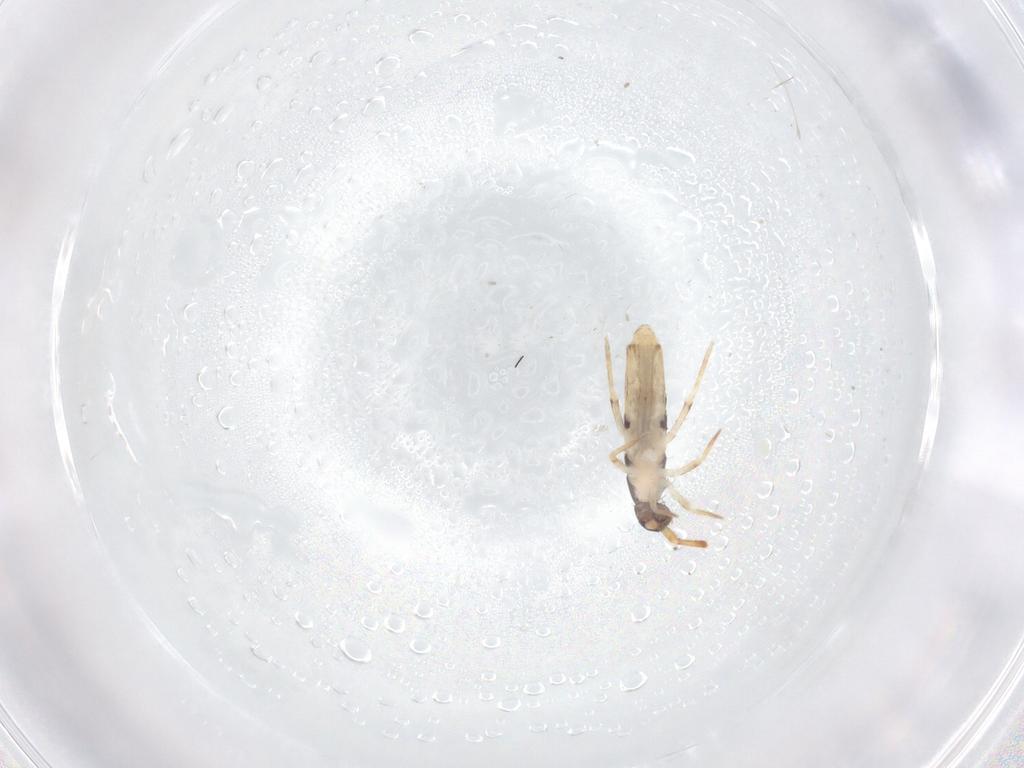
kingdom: Animalia
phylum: Arthropoda
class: Collembola
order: Entomobryomorpha
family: Entomobryidae
